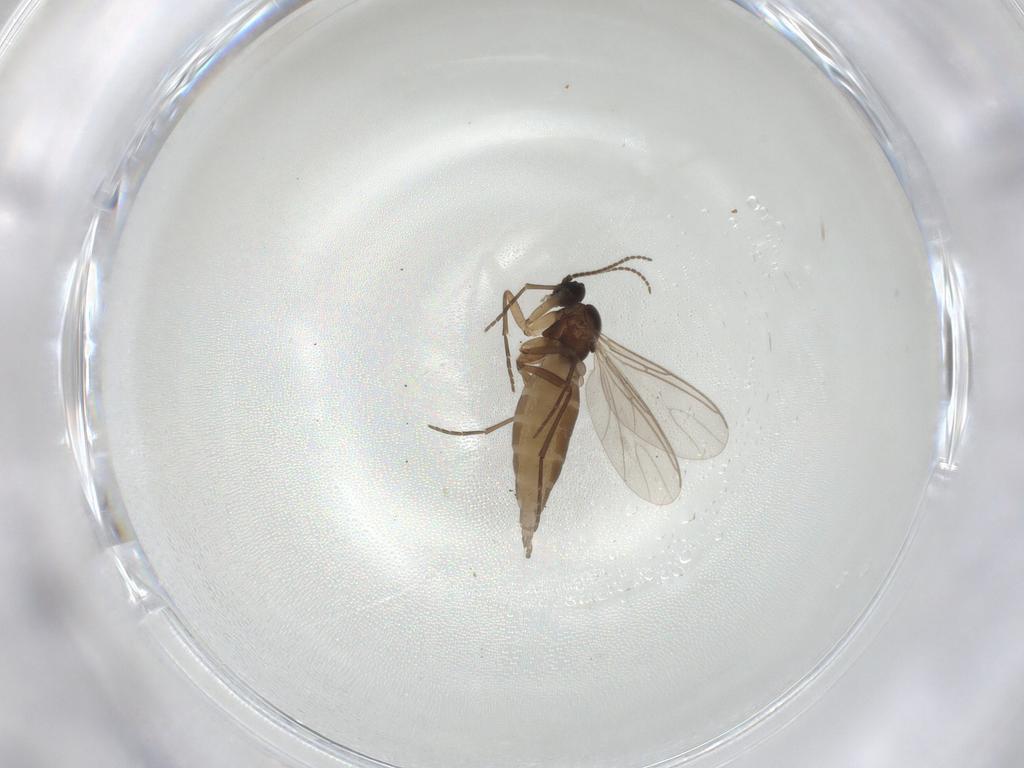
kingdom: Animalia
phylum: Arthropoda
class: Insecta
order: Diptera
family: Sciaridae
